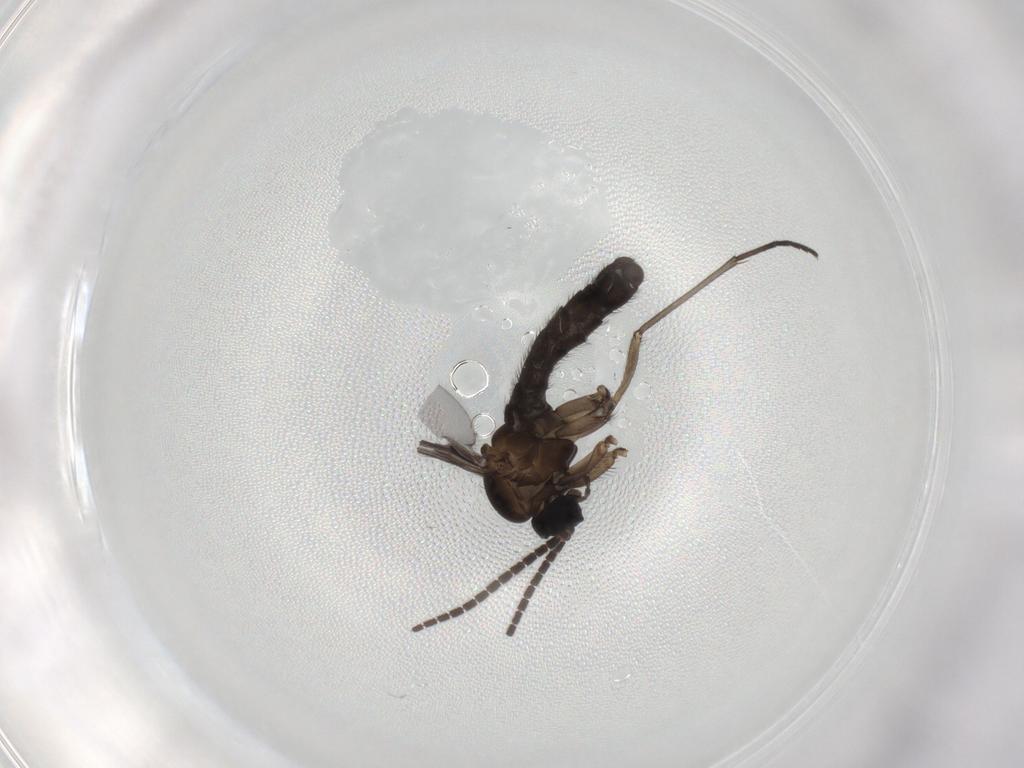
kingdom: Animalia
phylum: Arthropoda
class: Insecta
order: Diptera
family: Sciaridae
